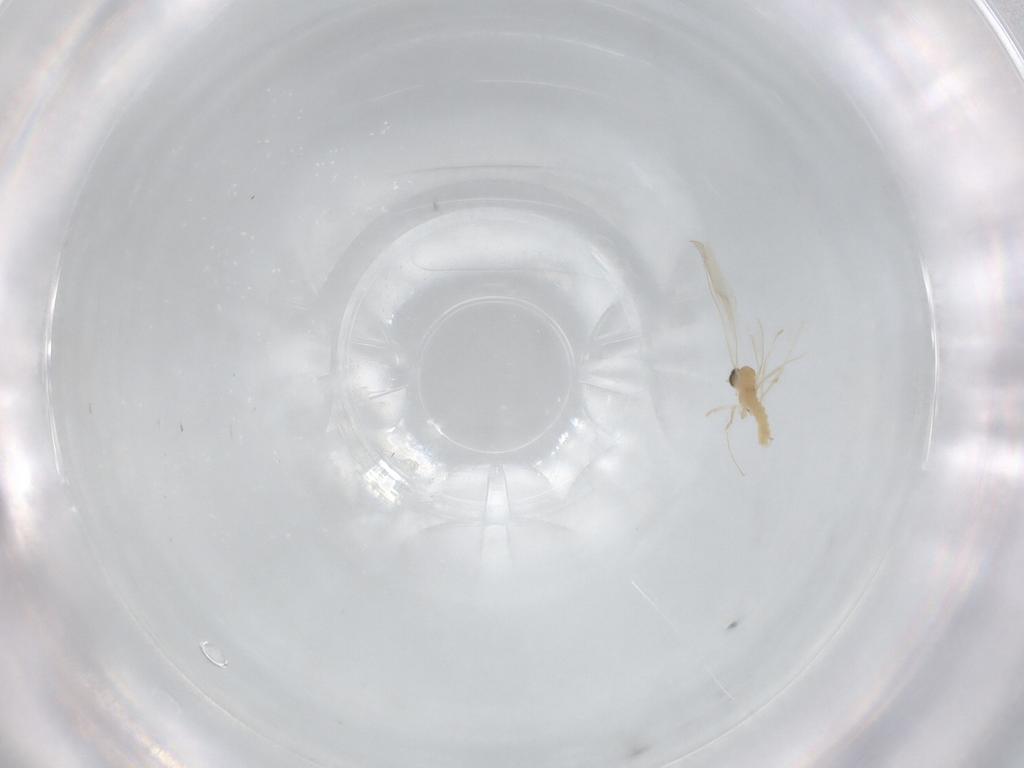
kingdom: Animalia
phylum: Arthropoda
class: Insecta
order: Diptera
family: Cecidomyiidae
